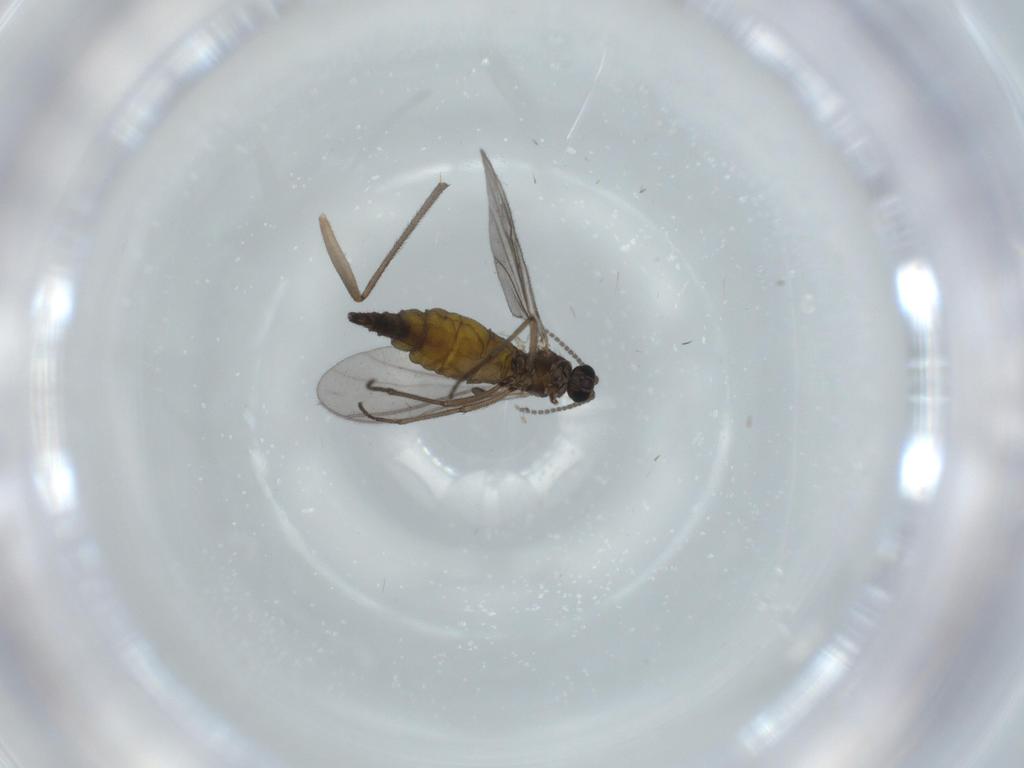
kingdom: Animalia
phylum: Arthropoda
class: Insecta
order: Diptera
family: Sciaridae
